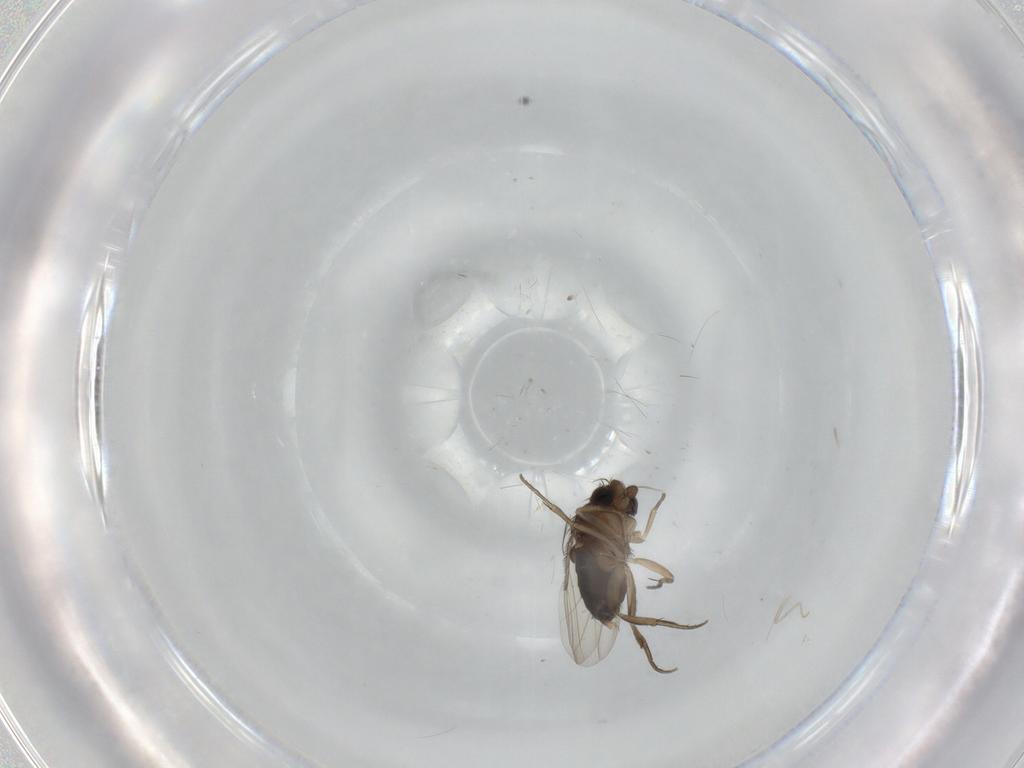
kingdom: Animalia
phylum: Arthropoda
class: Insecta
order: Diptera
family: Phoridae
